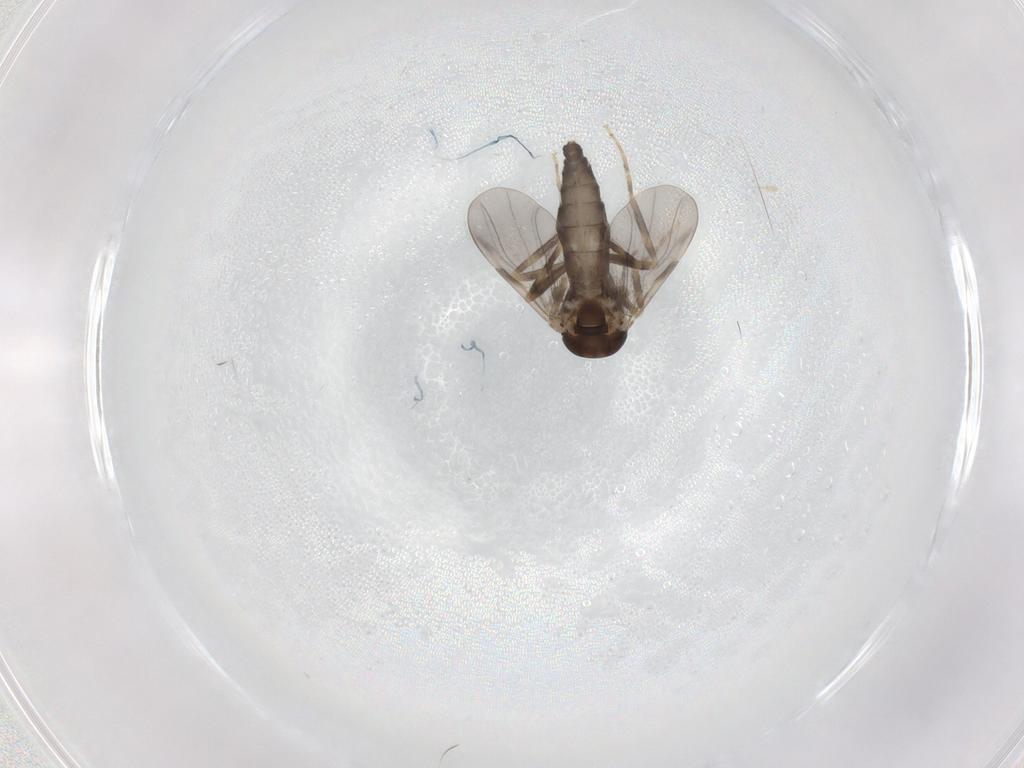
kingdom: Animalia
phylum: Arthropoda
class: Insecta
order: Diptera
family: Ceratopogonidae
